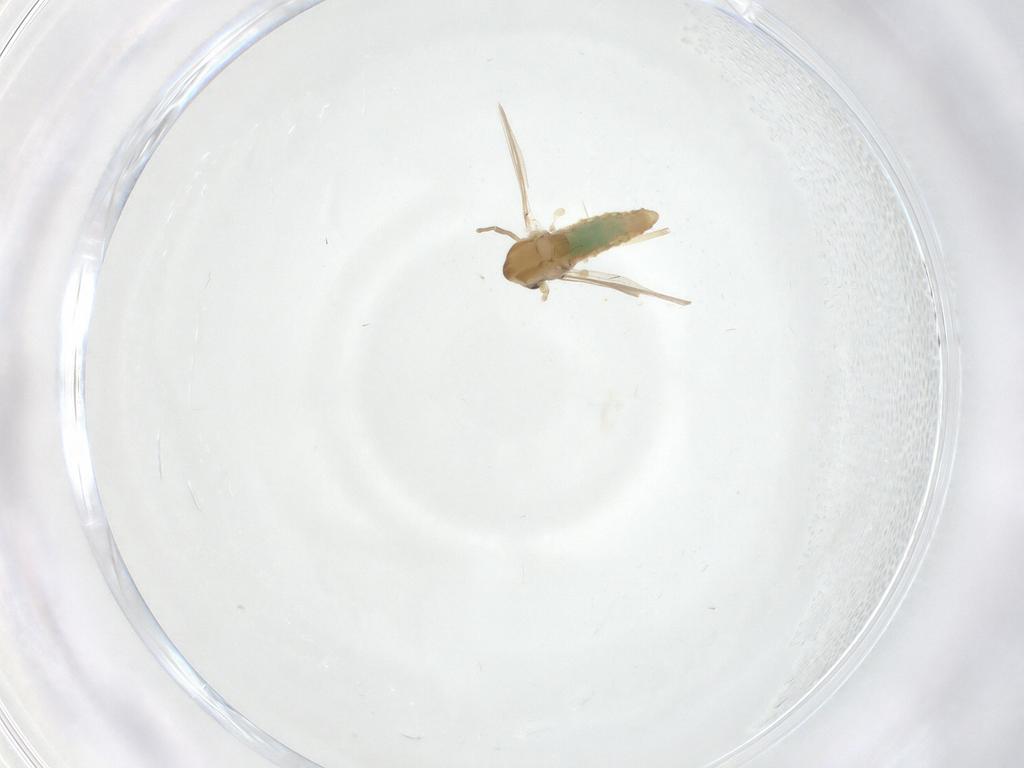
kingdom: Animalia
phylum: Arthropoda
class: Insecta
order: Diptera
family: Chironomidae
